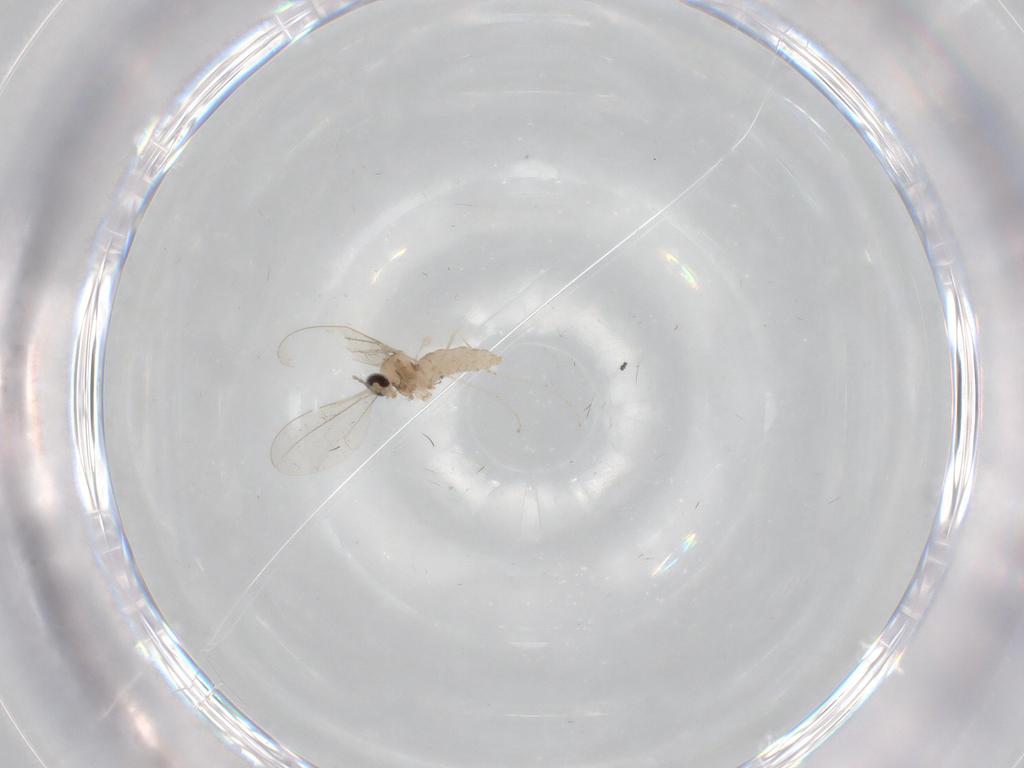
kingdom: Animalia
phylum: Arthropoda
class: Insecta
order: Diptera
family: Cecidomyiidae
